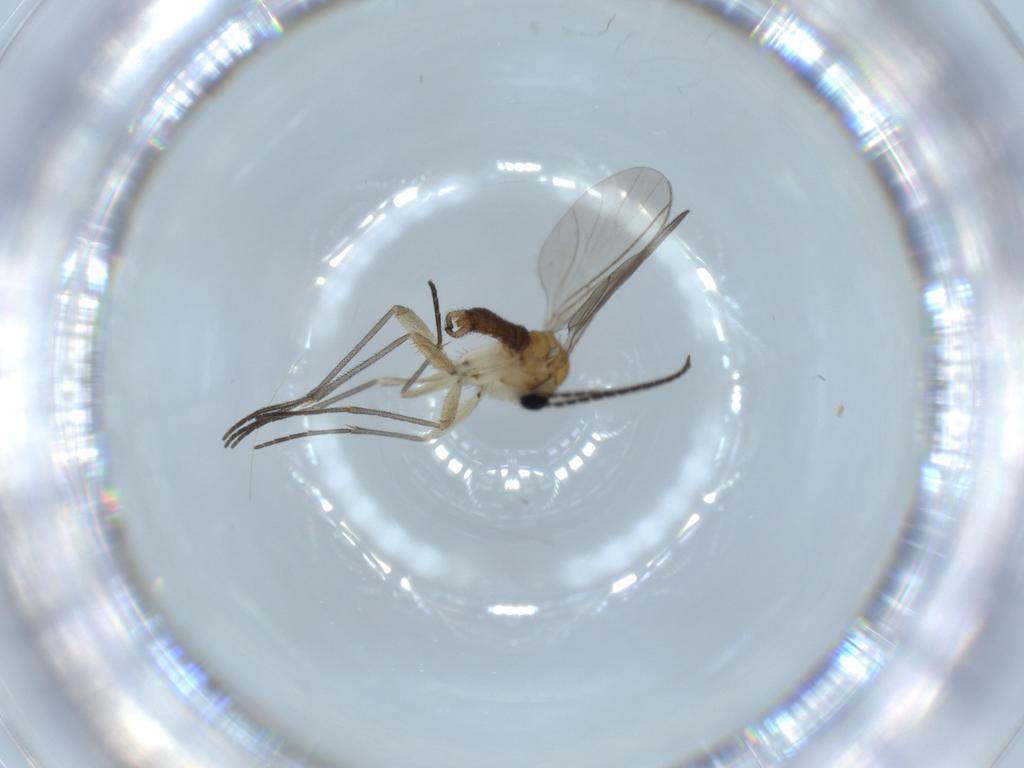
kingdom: Animalia
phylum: Arthropoda
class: Insecta
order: Diptera
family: Sciaridae
